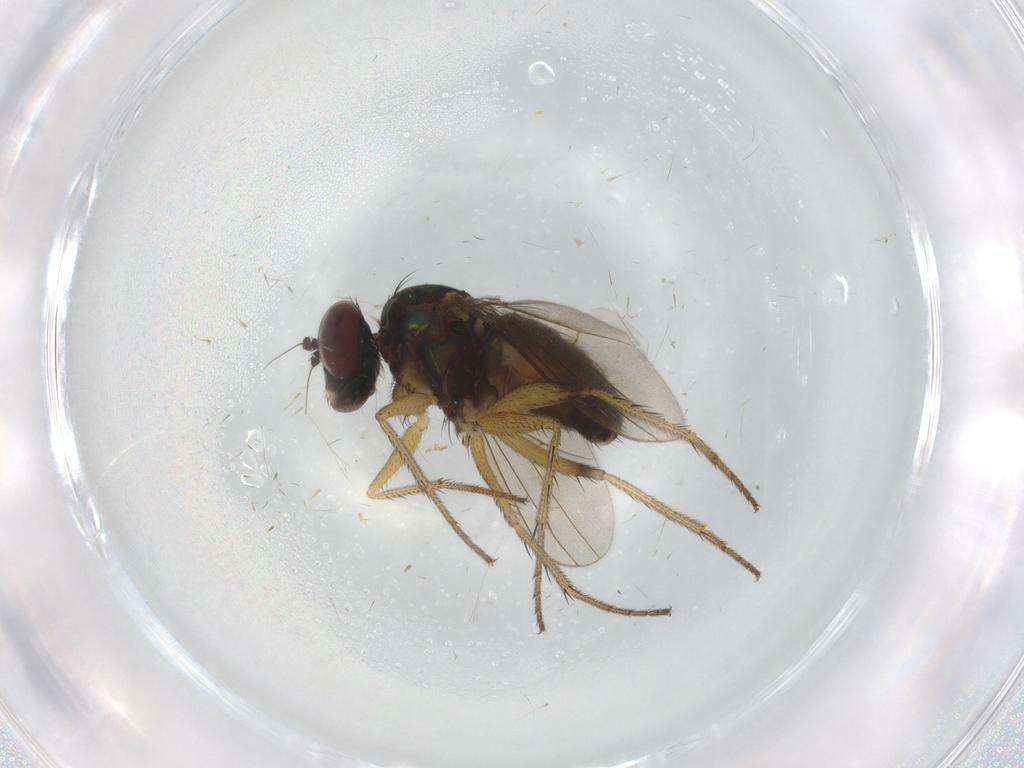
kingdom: Animalia
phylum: Arthropoda
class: Insecta
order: Diptera
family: Dolichopodidae
